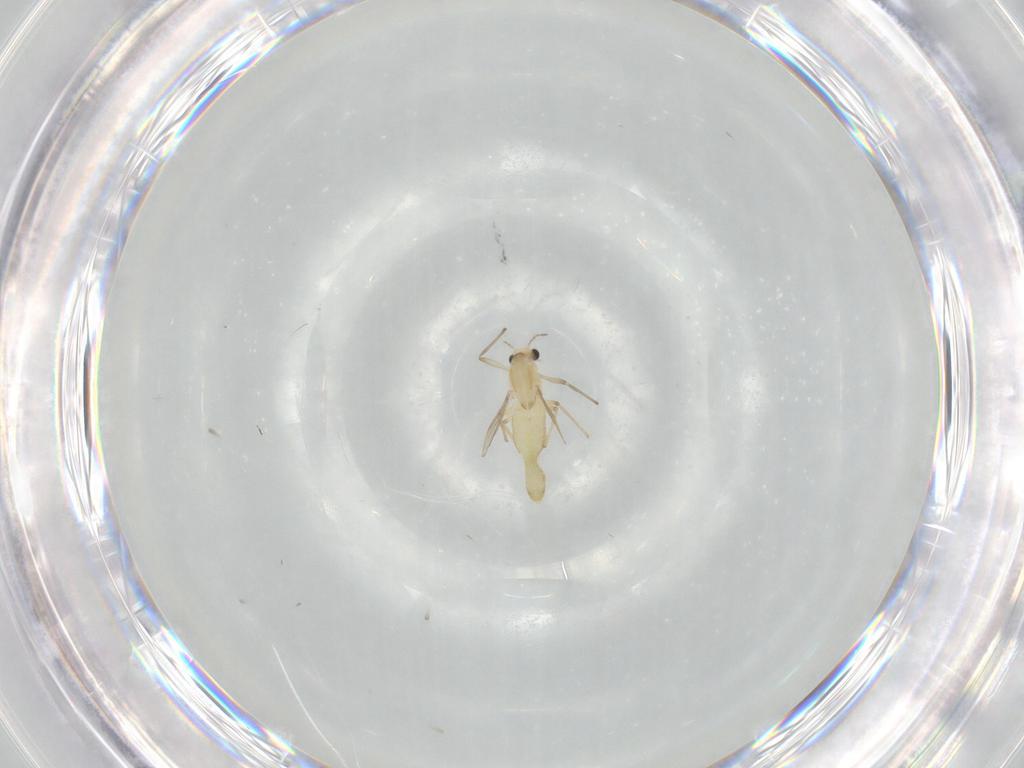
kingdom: Animalia
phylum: Arthropoda
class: Insecta
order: Diptera
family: Chironomidae
